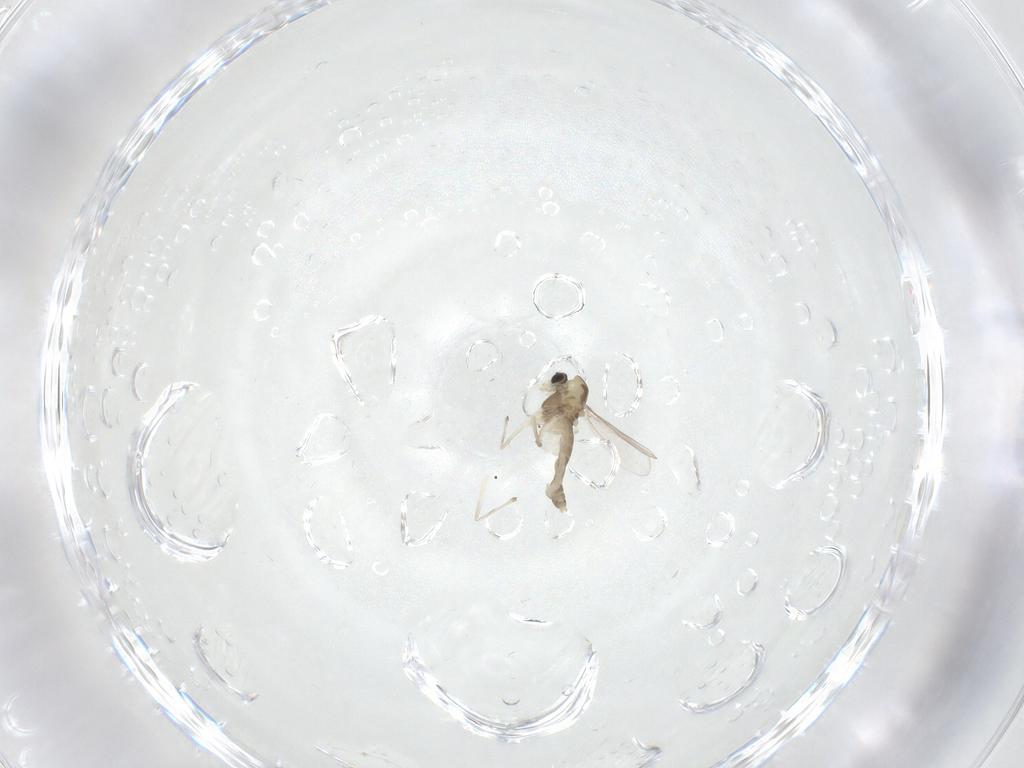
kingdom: Animalia
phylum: Arthropoda
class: Insecta
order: Diptera
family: Chironomidae
